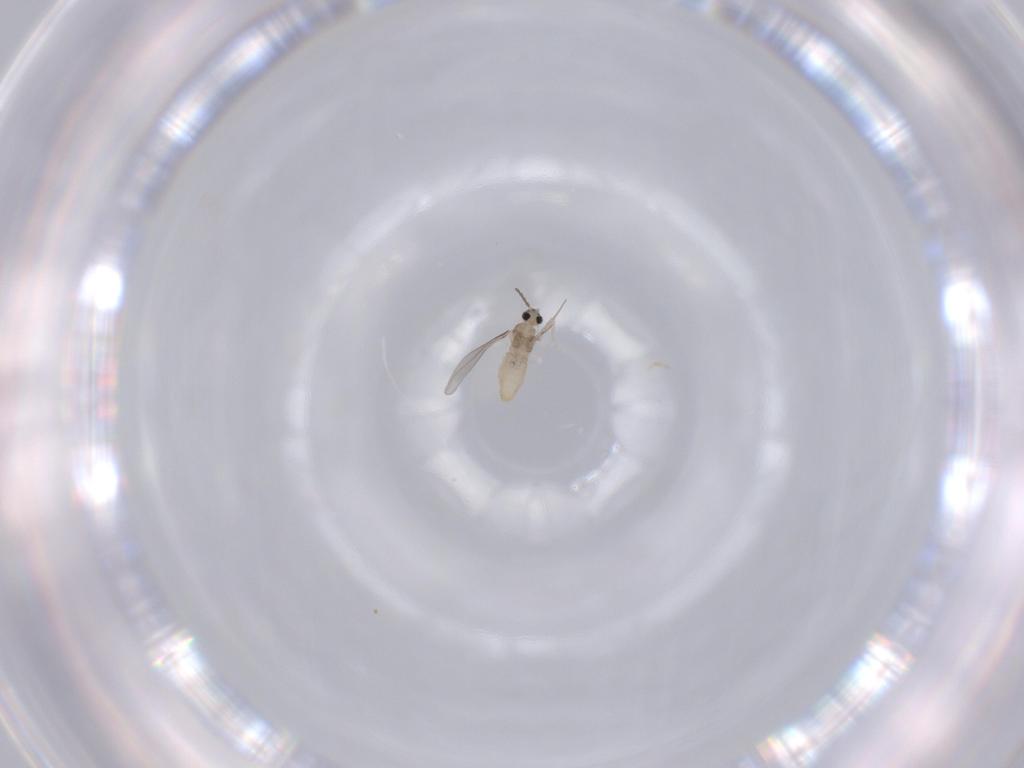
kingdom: Animalia
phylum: Arthropoda
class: Insecta
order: Diptera
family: Cecidomyiidae
